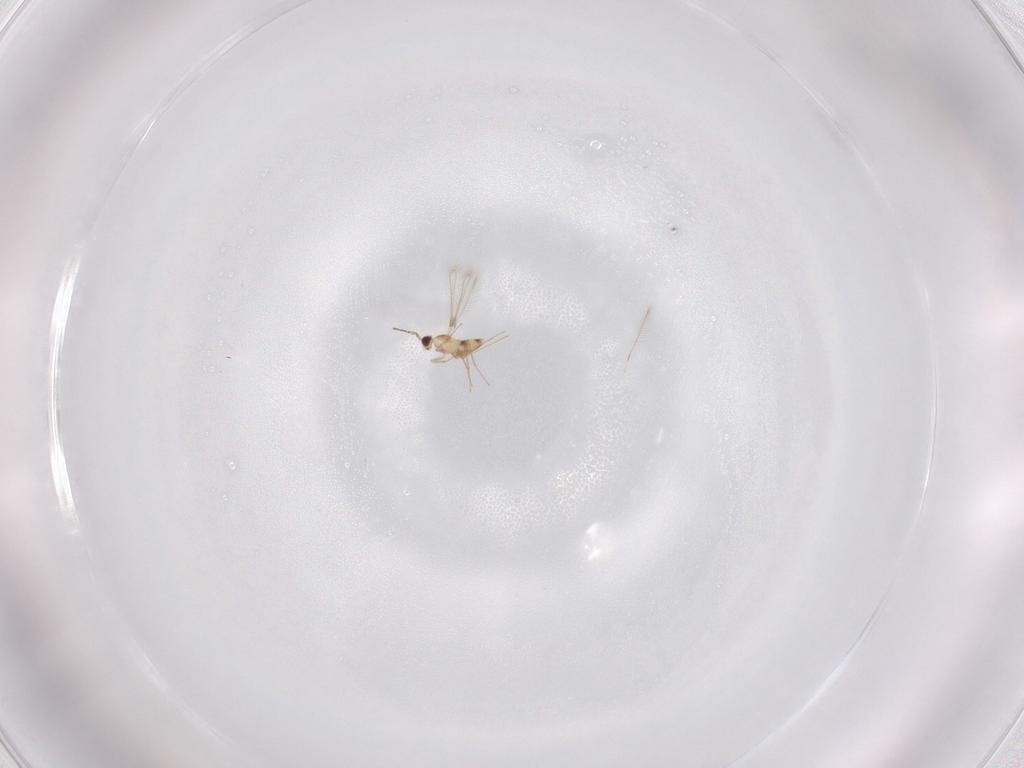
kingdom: Animalia
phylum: Arthropoda
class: Insecta
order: Hymenoptera
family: Mymaridae
